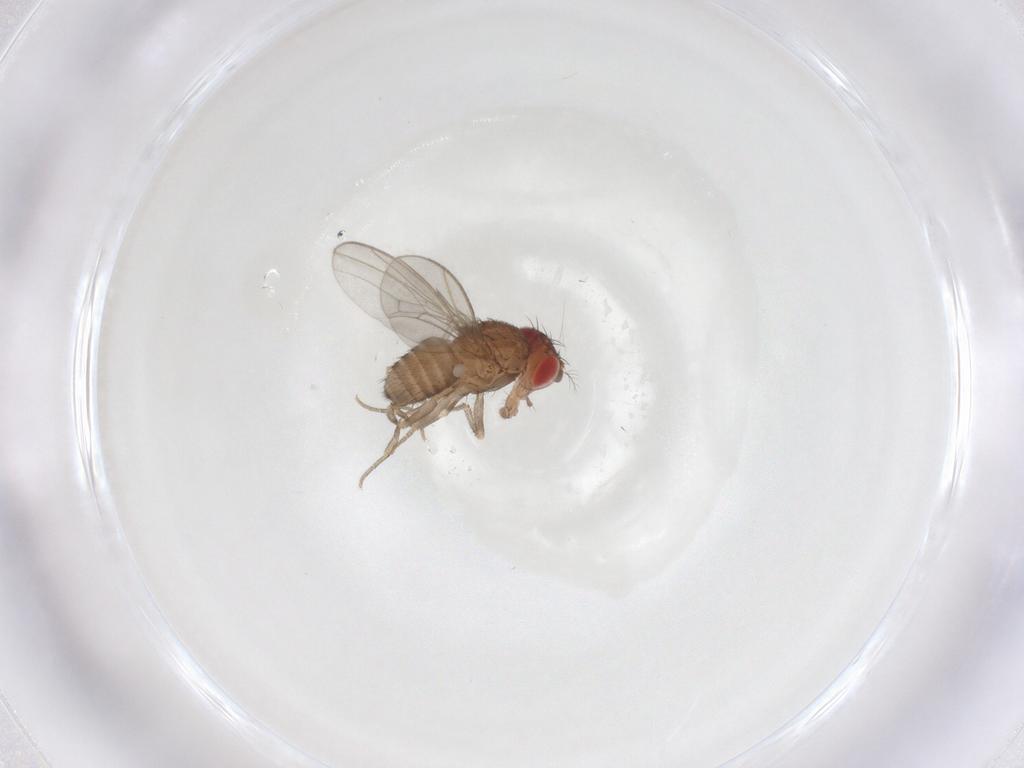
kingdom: Animalia
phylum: Arthropoda
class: Insecta
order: Diptera
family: Drosophilidae
